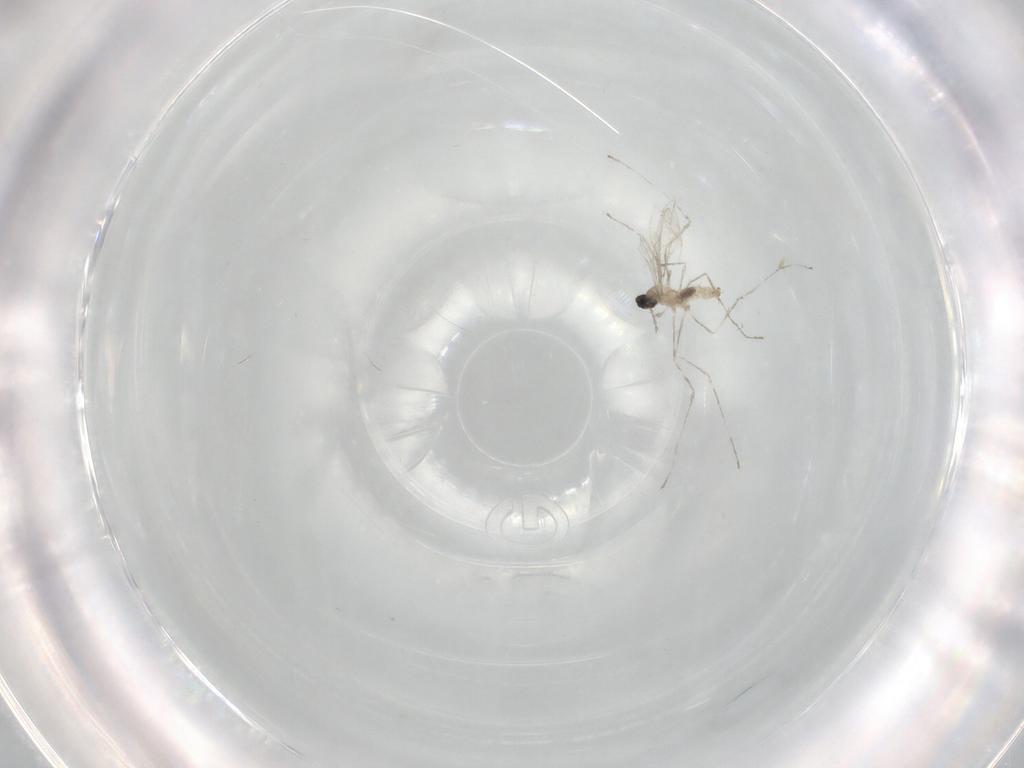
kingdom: Animalia
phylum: Arthropoda
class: Insecta
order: Diptera
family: Cecidomyiidae
